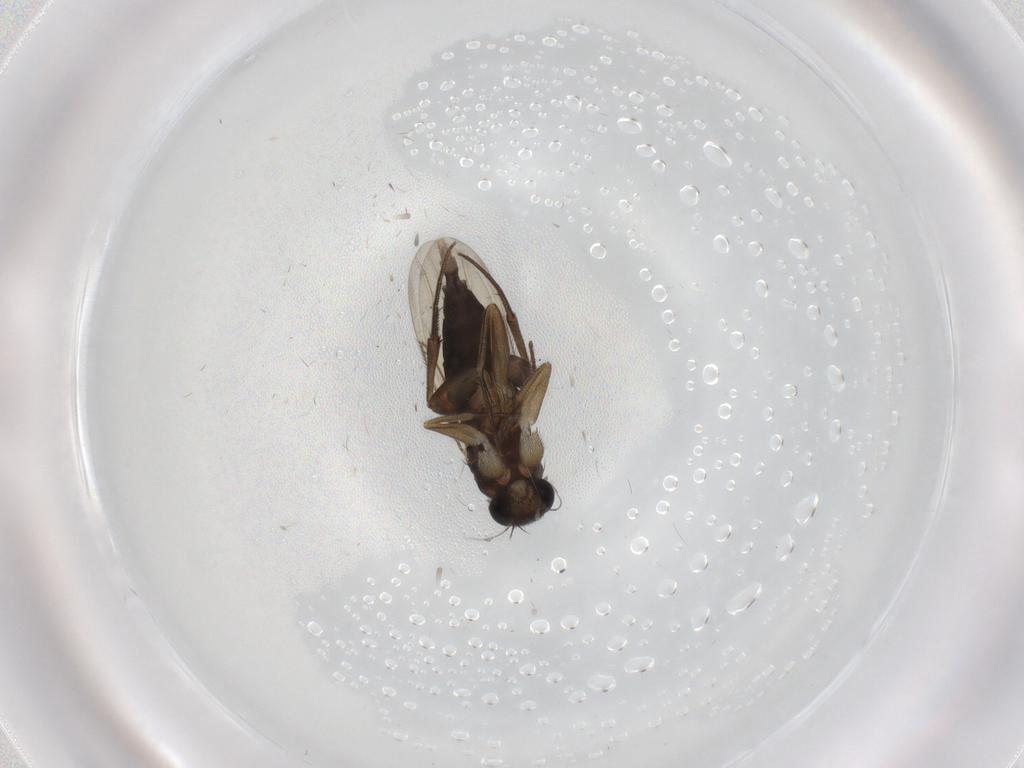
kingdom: Animalia
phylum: Arthropoda
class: Insecta
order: Diptera
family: Phoridae
